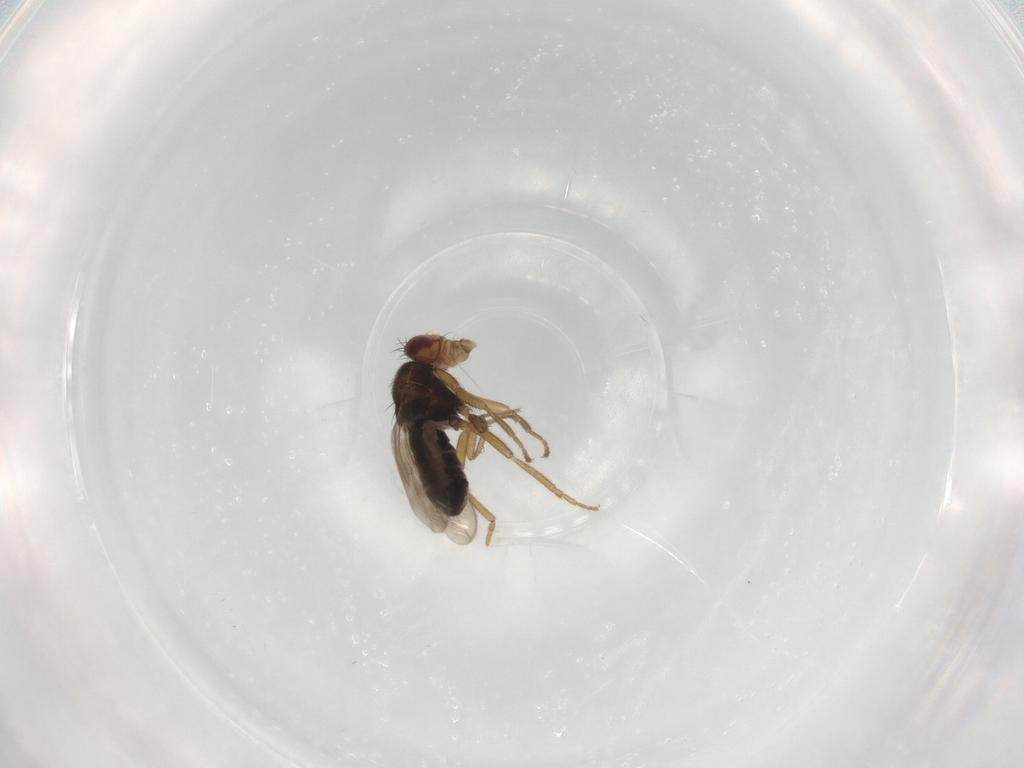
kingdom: Animalia
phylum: Arthropoda
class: Insecta
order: Diptera
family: Sphaeroceridae
